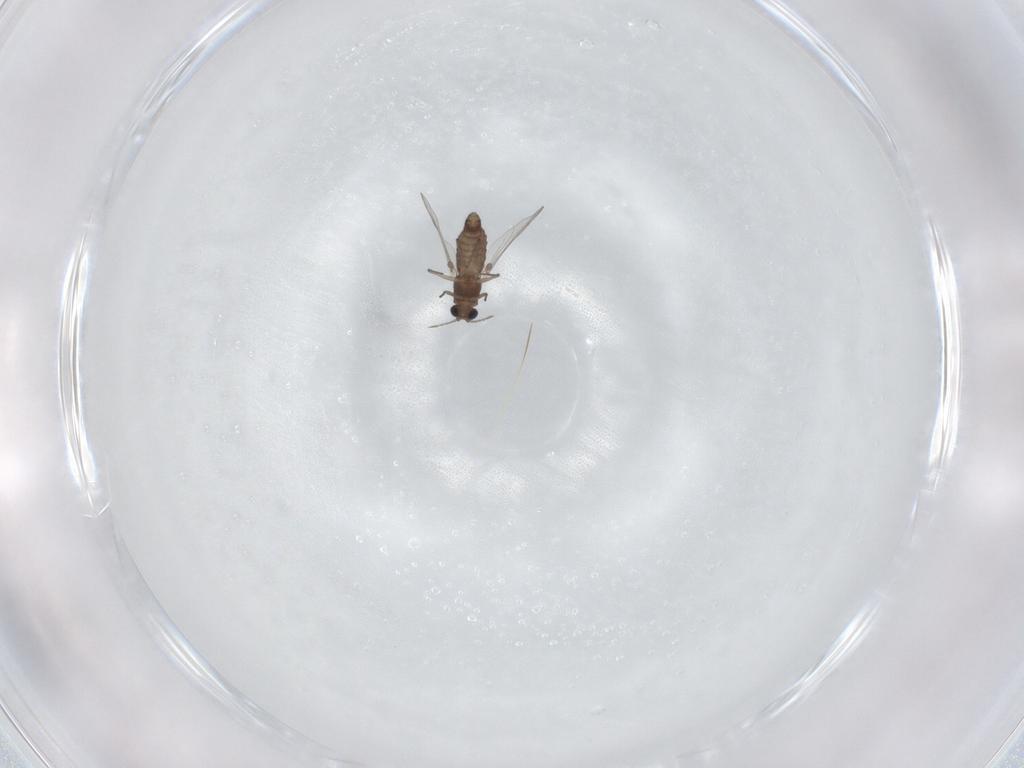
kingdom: Animalia
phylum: Arthropoda
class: Insecta
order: Diptera
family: Chironomidae
